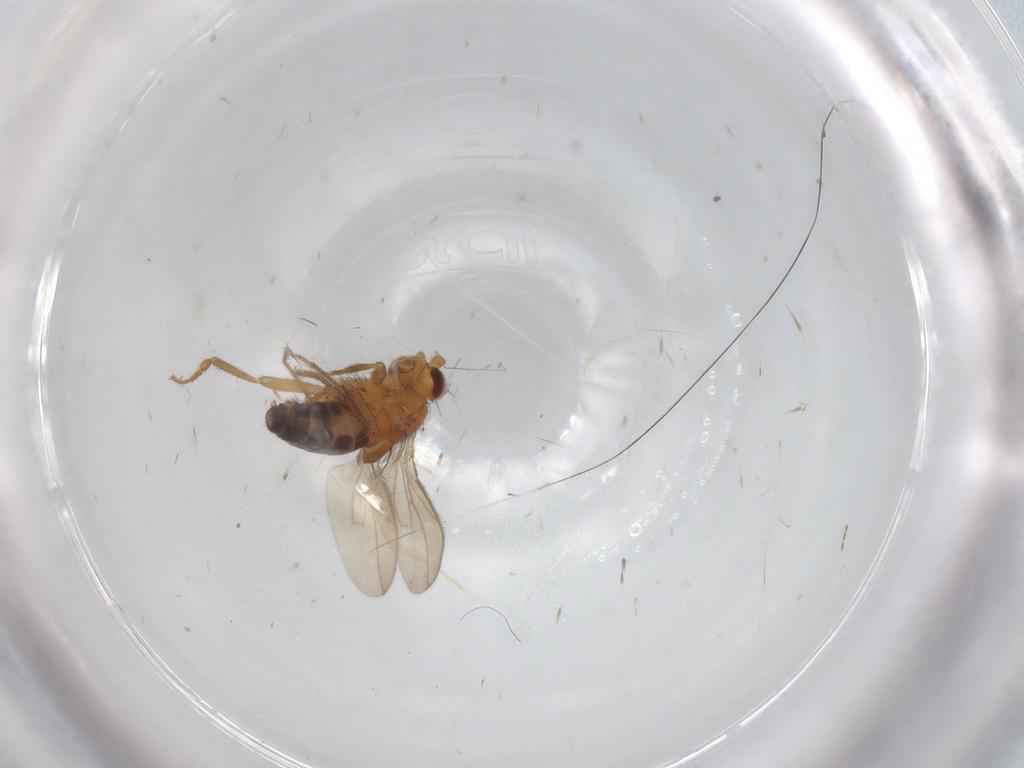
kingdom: Animalia
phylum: Arthropoda
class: Insecta
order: Diptera
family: Sphaeroceridae
